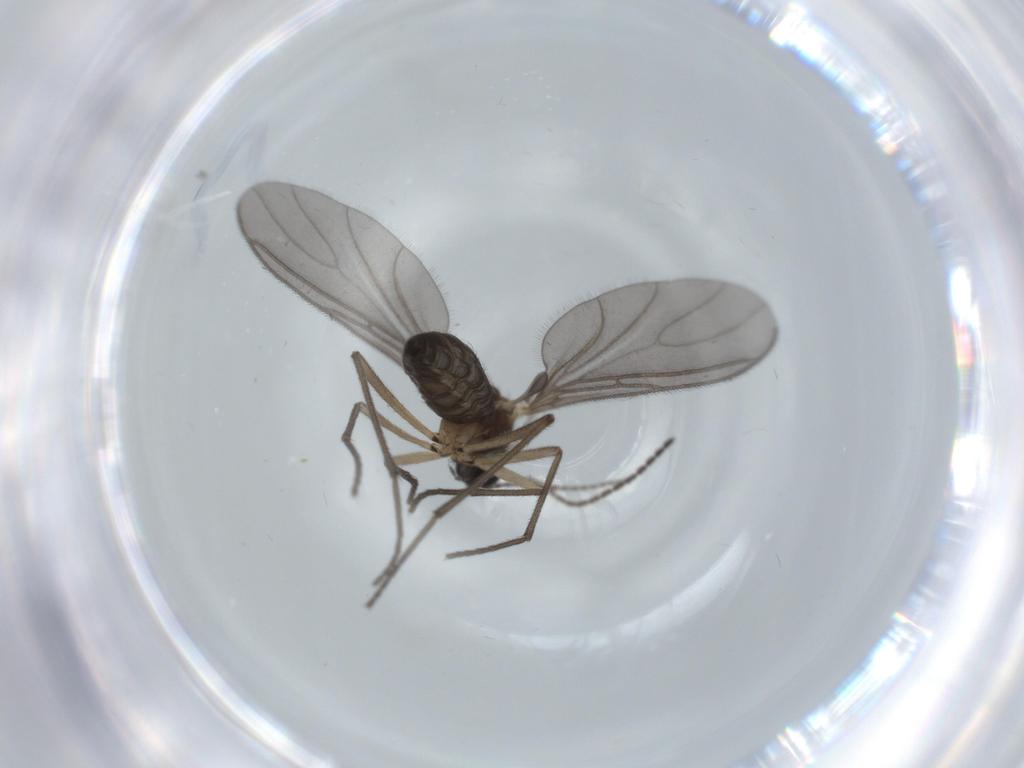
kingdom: Animalia
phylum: Arthropoda
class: Insecta
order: Diptera
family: Sciaridae
